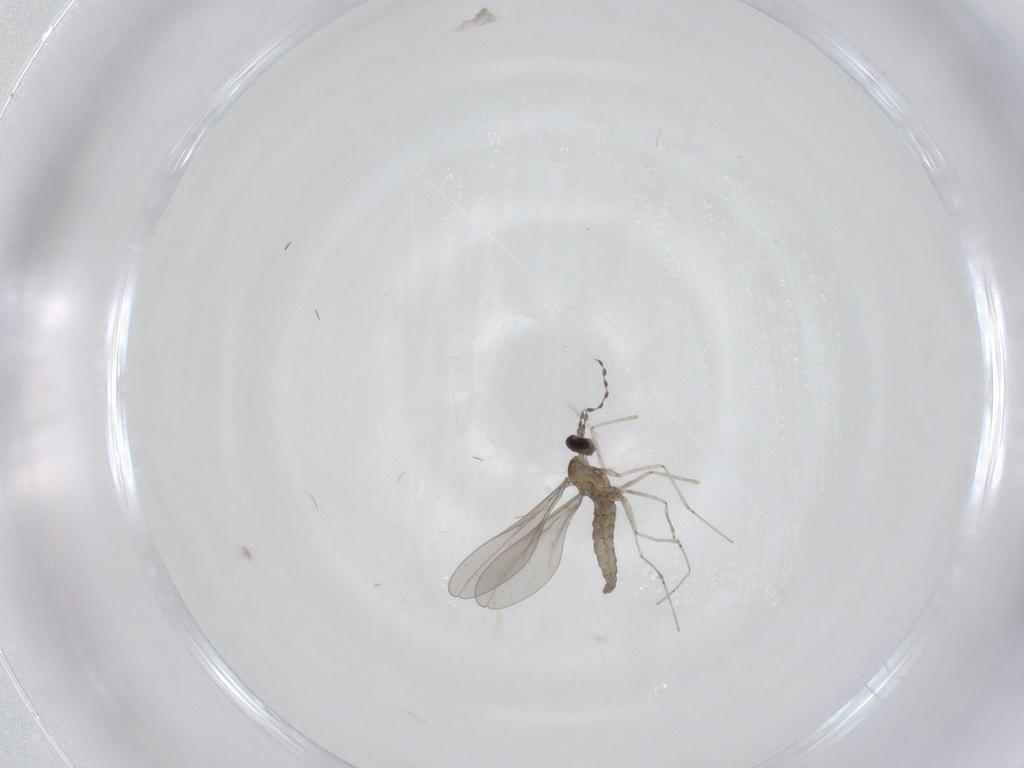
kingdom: Animalia
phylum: Arthropoda
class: Insecta
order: Diptera
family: Cecidomyiidae
